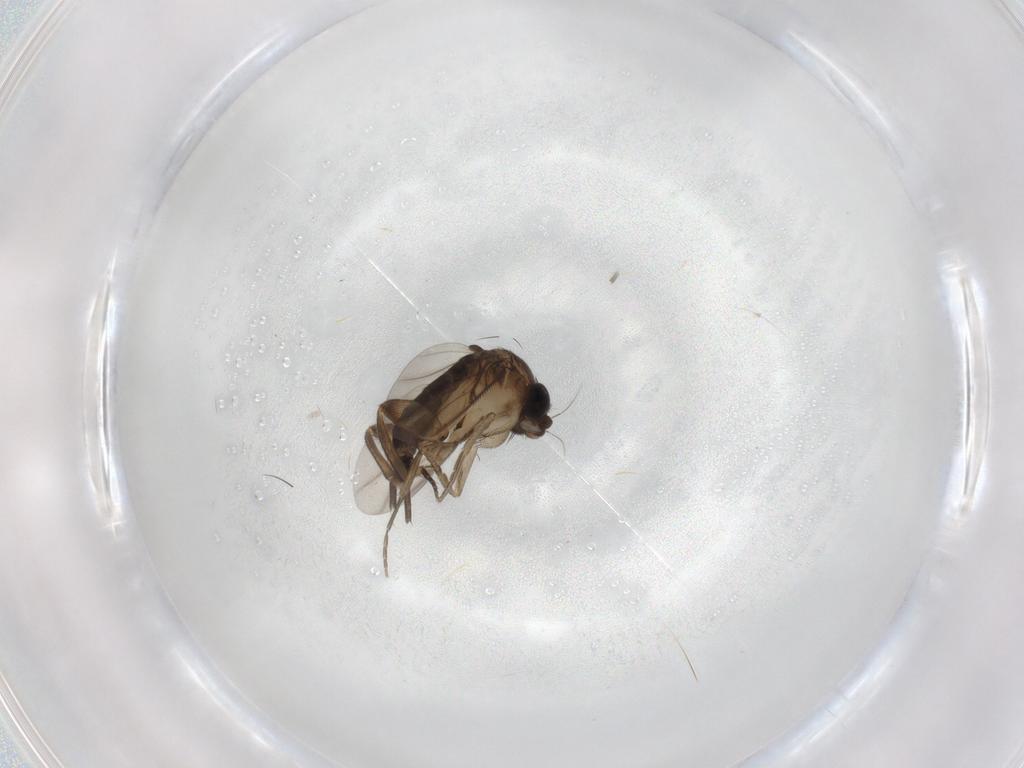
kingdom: Animalia
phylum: Arthropoda
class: Insecta
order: Diptera
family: Phoridae
